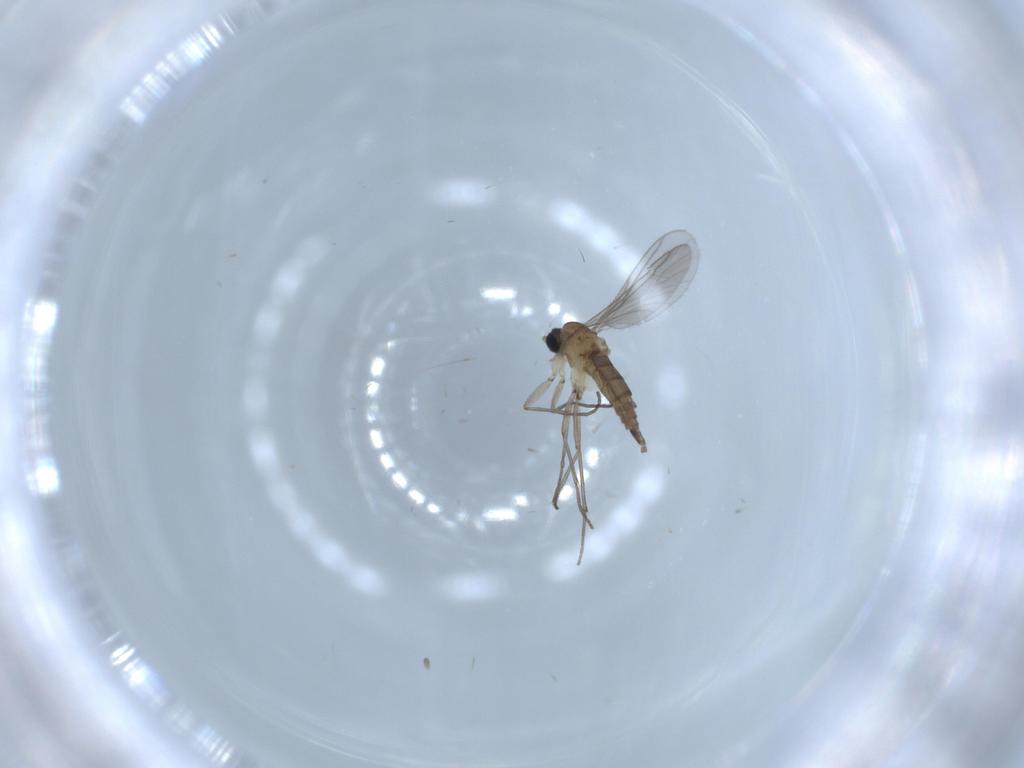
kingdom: Animalia
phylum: Arthropoda
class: Insecta
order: Diptera
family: Sciaridae
